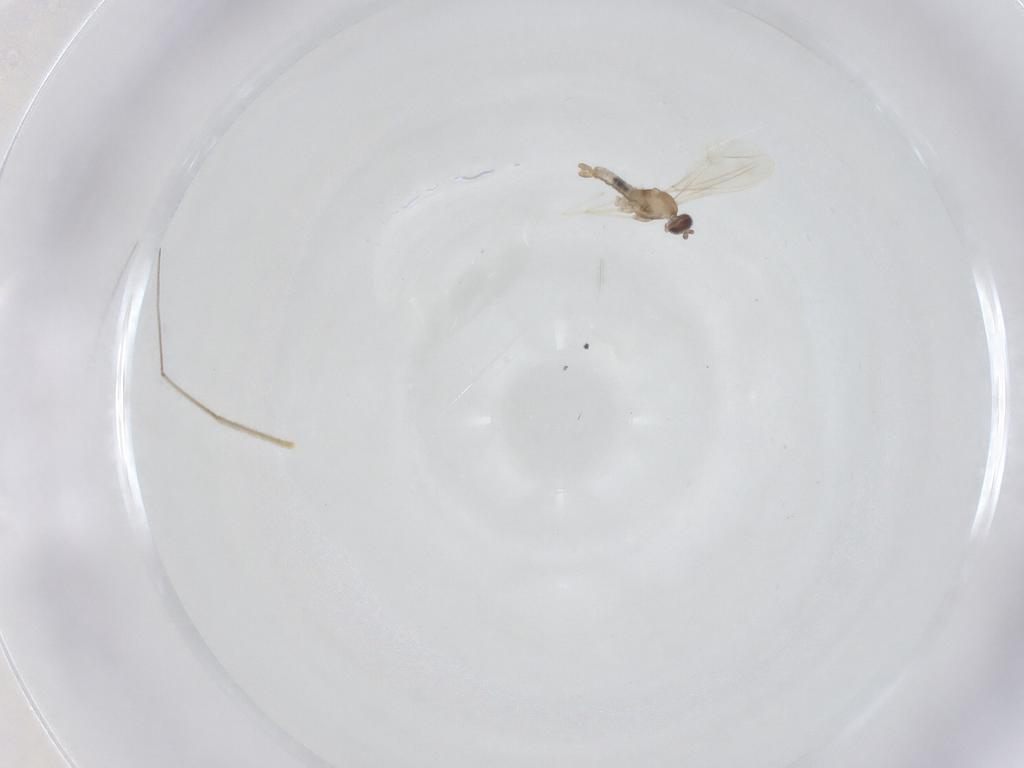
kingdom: Animalia
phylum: Arthropoda
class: Insecta
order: Diptera
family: Cecidomyiidae
